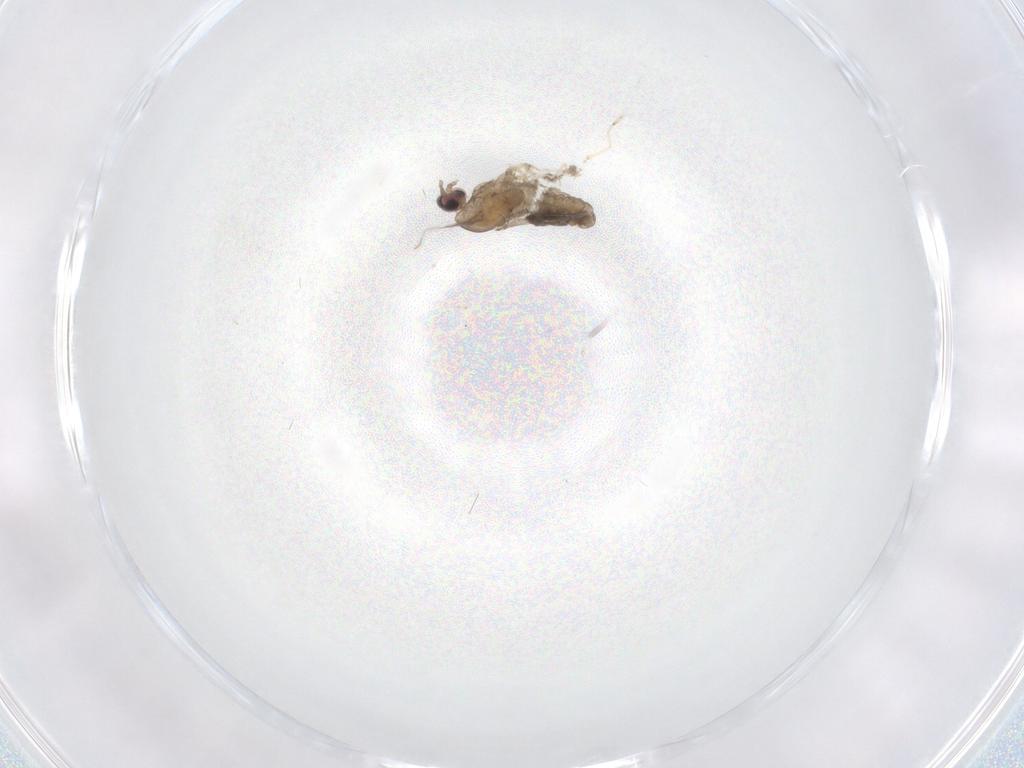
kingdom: Animalia
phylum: Arthropoda
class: Insecta
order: Diptera
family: Cecidomyiidae
